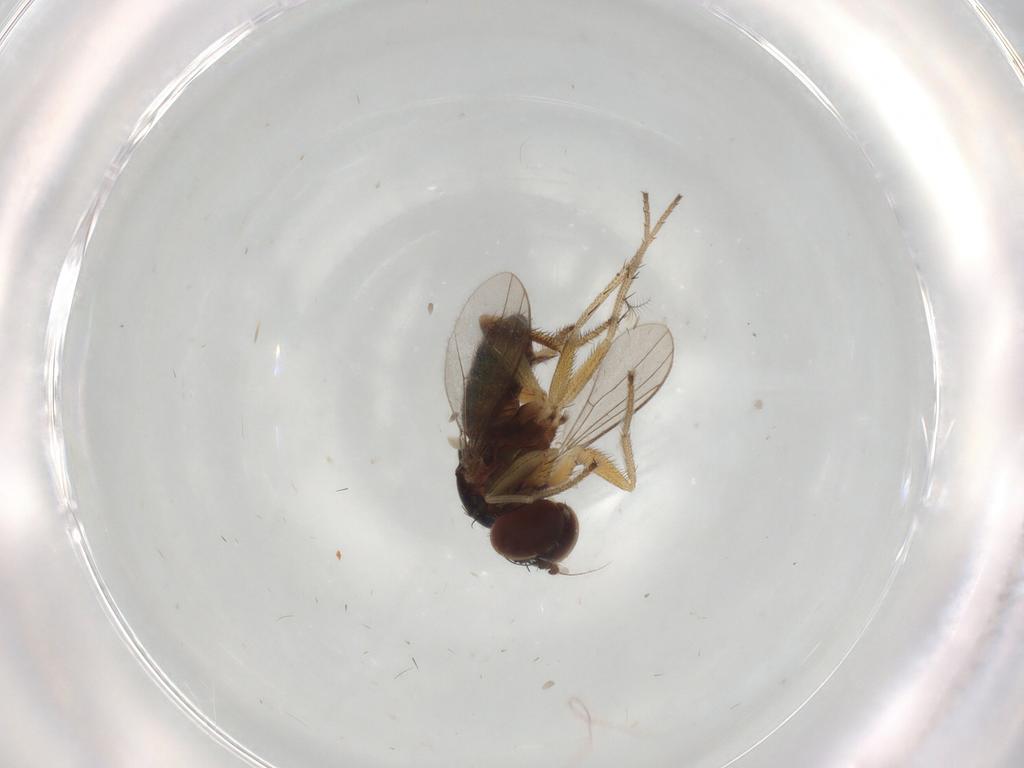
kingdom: Animalia
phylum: Arthropoda
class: Insecta
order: Diptera
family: Dolichopodidae
